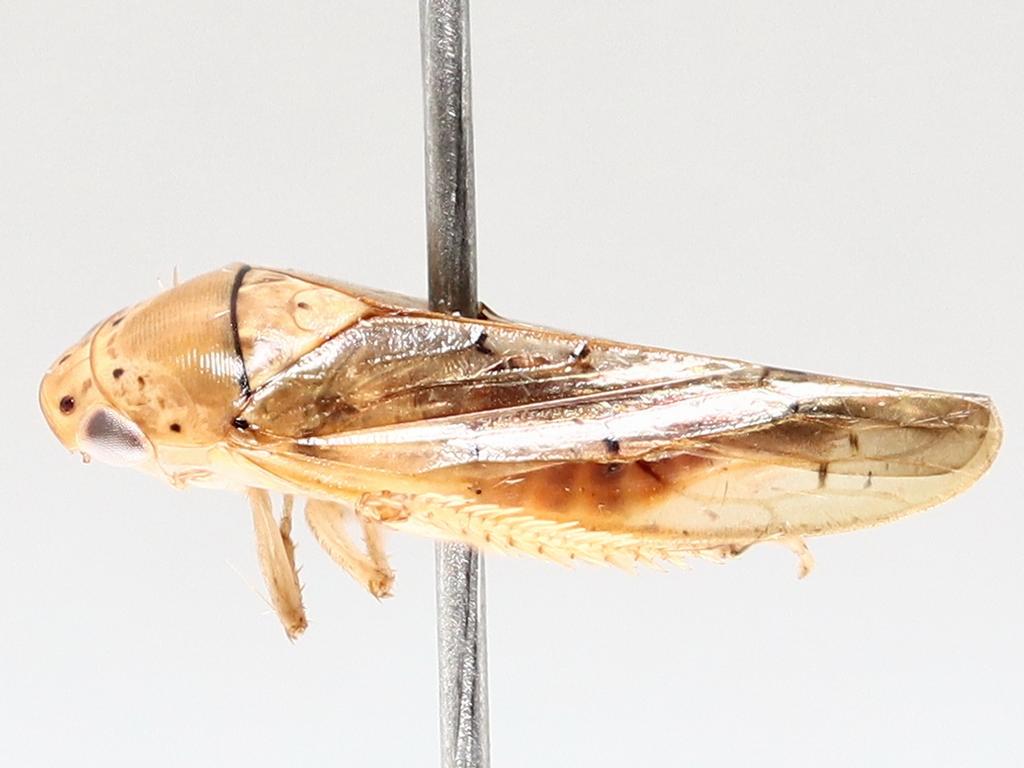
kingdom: Animalia
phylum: Arthropoda
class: Insecta
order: Diptera
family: Cecidomyiidae
